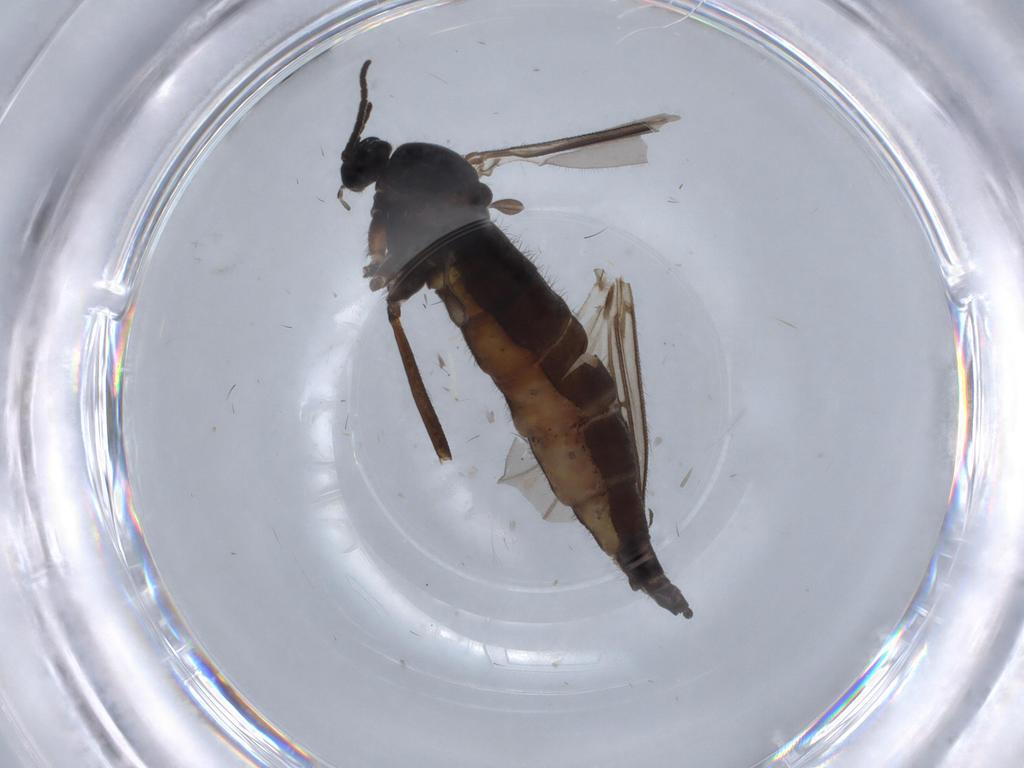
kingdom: Animalia
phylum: Arthropoda
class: Insecta
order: Diptera
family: Sciaridae
